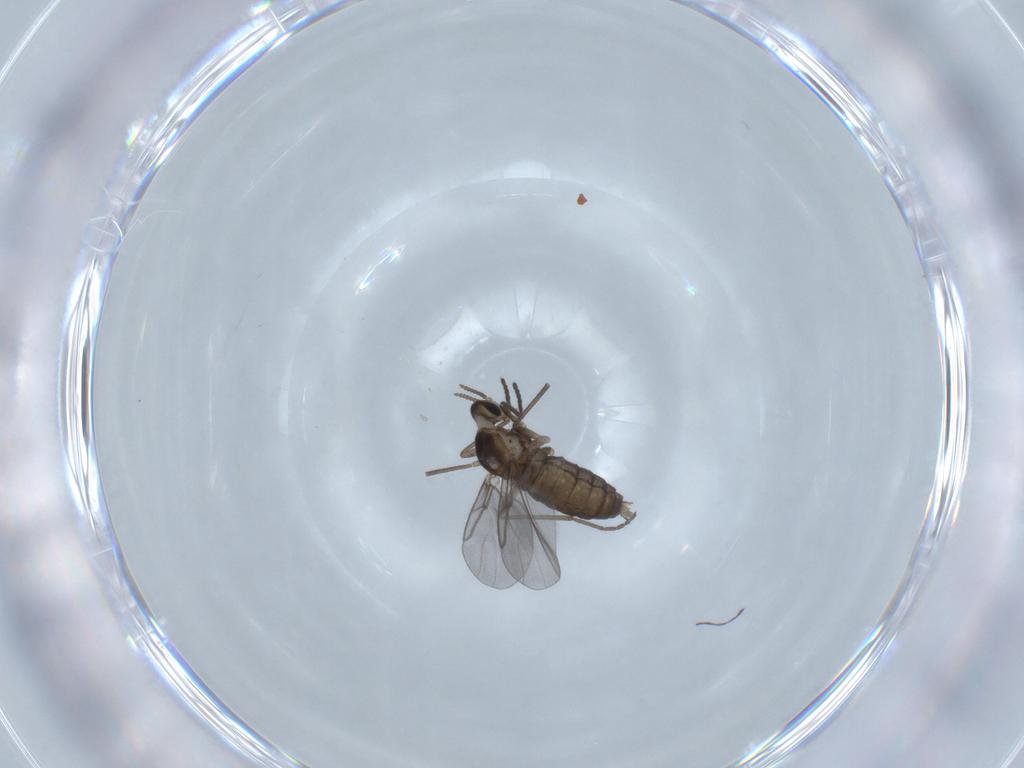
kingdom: Animalia
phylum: Arthropoda
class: Insecta
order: Diptera
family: Cecidomyiidae
